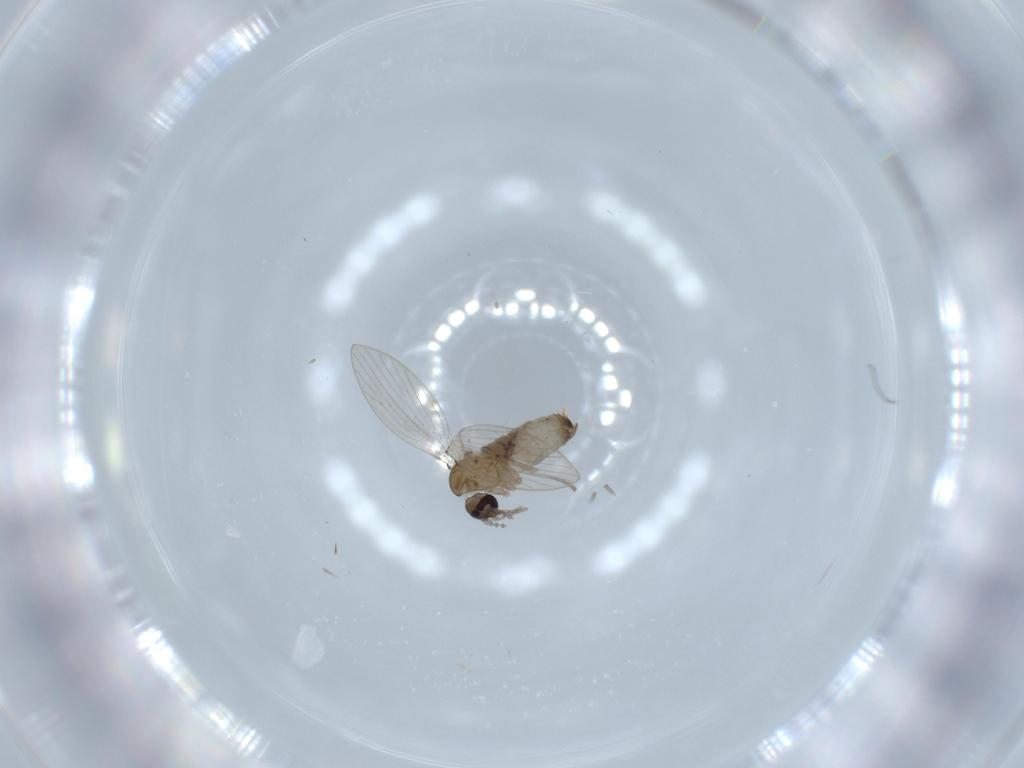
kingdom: Animalia
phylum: Arthropoda
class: Insecta
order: Diptera
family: Psychodidae
